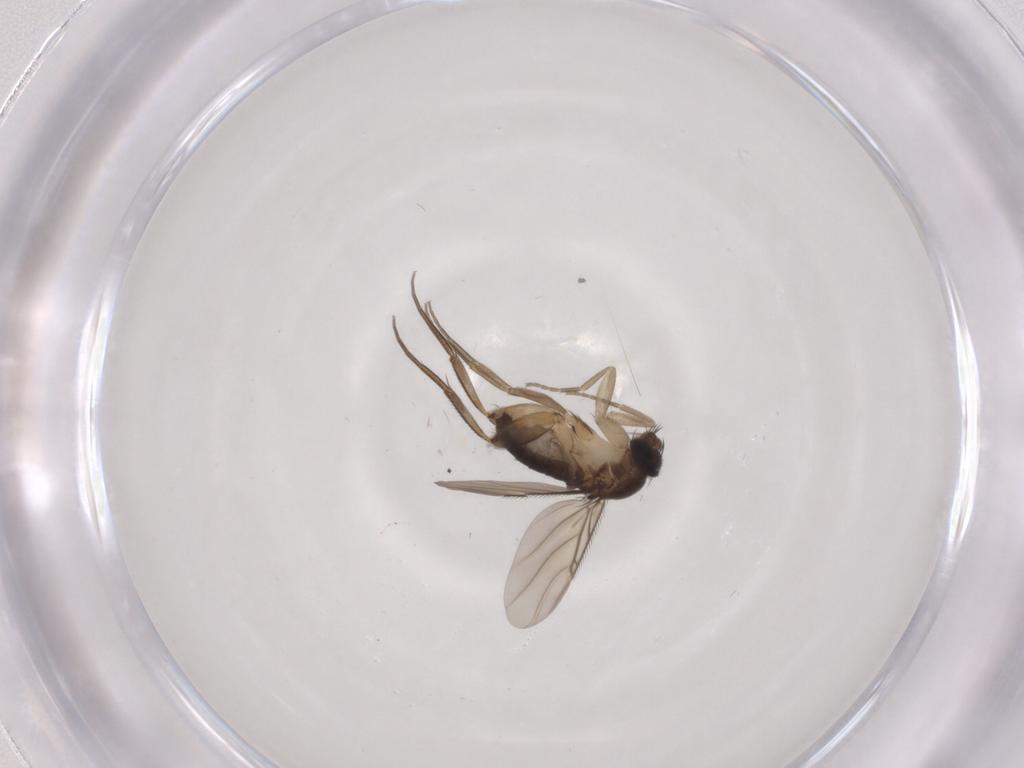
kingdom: Animalia
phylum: Arthropoda
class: Insecta
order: Diptera
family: Phoridae
